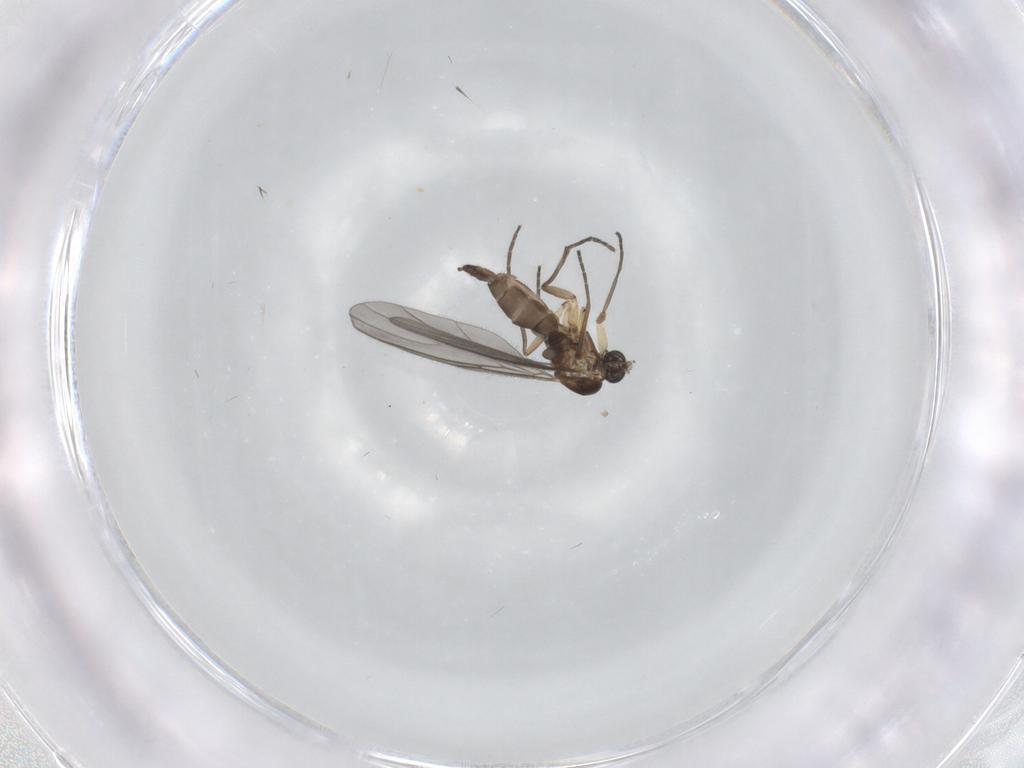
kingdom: Animalia
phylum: Arthropoda
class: Insecta
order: Diptera
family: Sciaridae
